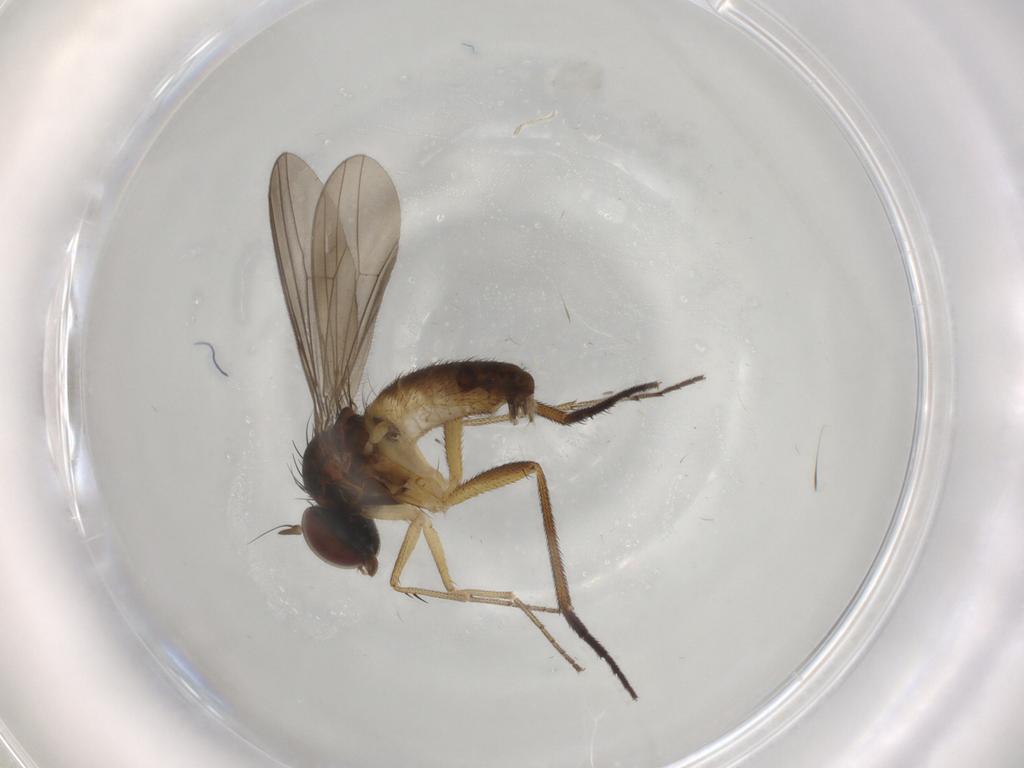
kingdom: Animalia
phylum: Arthropoda
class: Insecta
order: Diptera
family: Dolichopodidae
